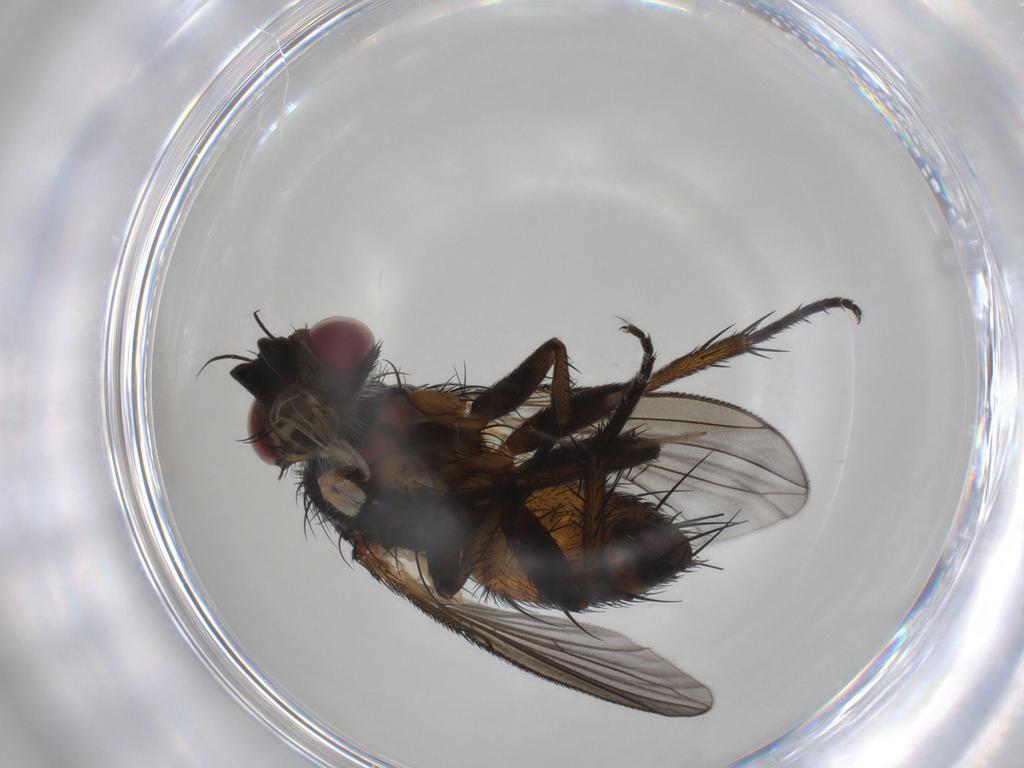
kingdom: Animalia
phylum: Arthropoda
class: Insecta
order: Diptera
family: Tachinidae
